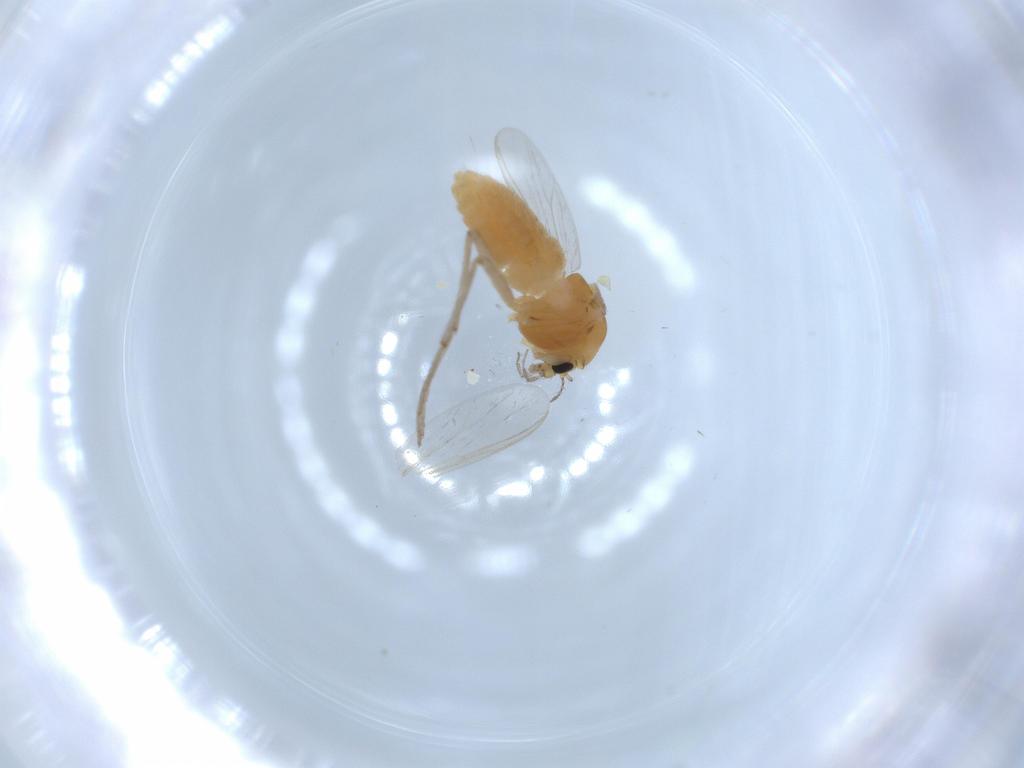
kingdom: Animalia
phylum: Arthropoda
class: Insecta
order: Diptera
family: Chironomidae
